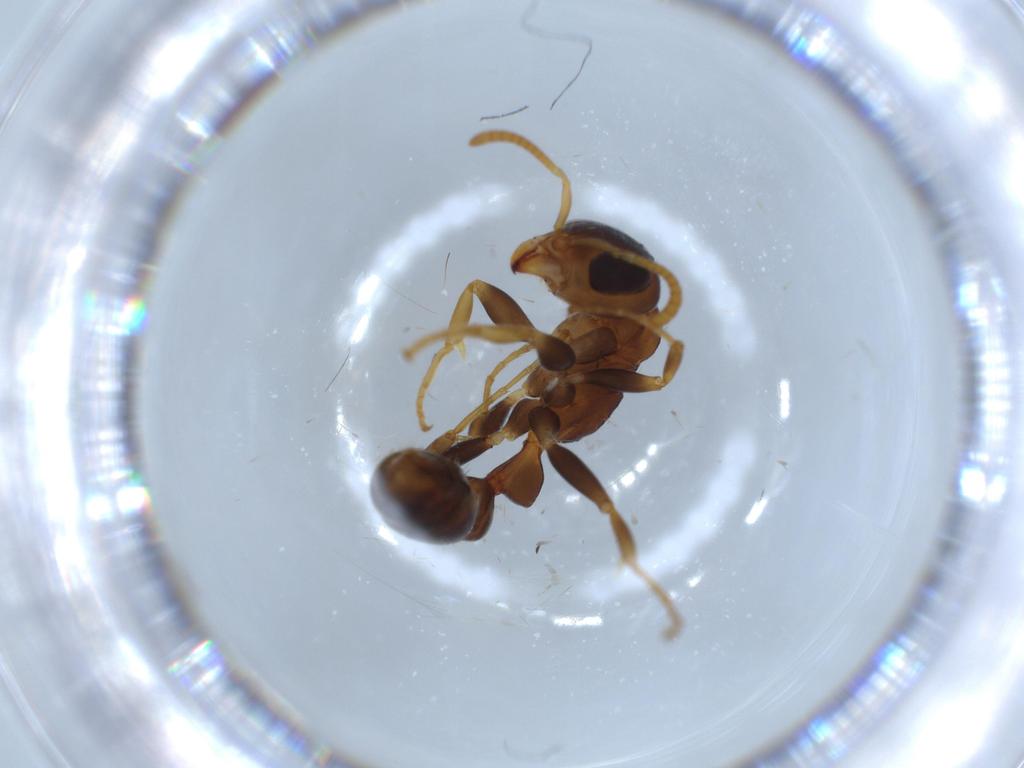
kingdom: Animalia
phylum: Arthropoda
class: Insecta
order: Hymenoptera
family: Formicidae
